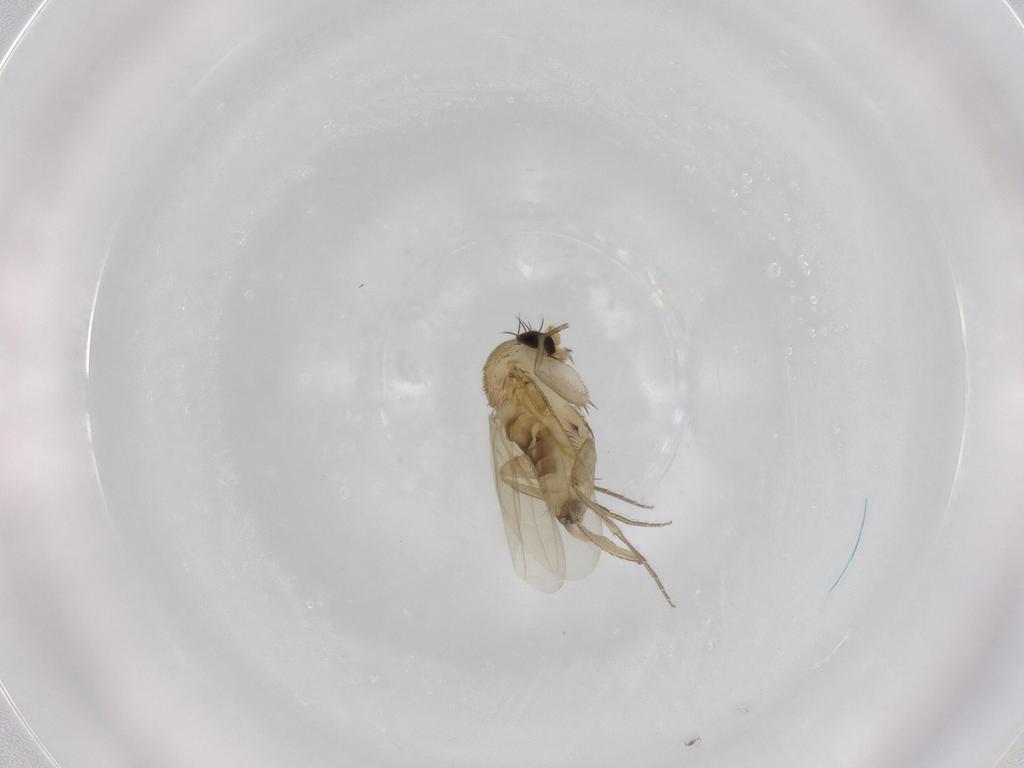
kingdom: Animalia
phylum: Arthropoda
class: Insecta
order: Diptera
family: Phoridae
